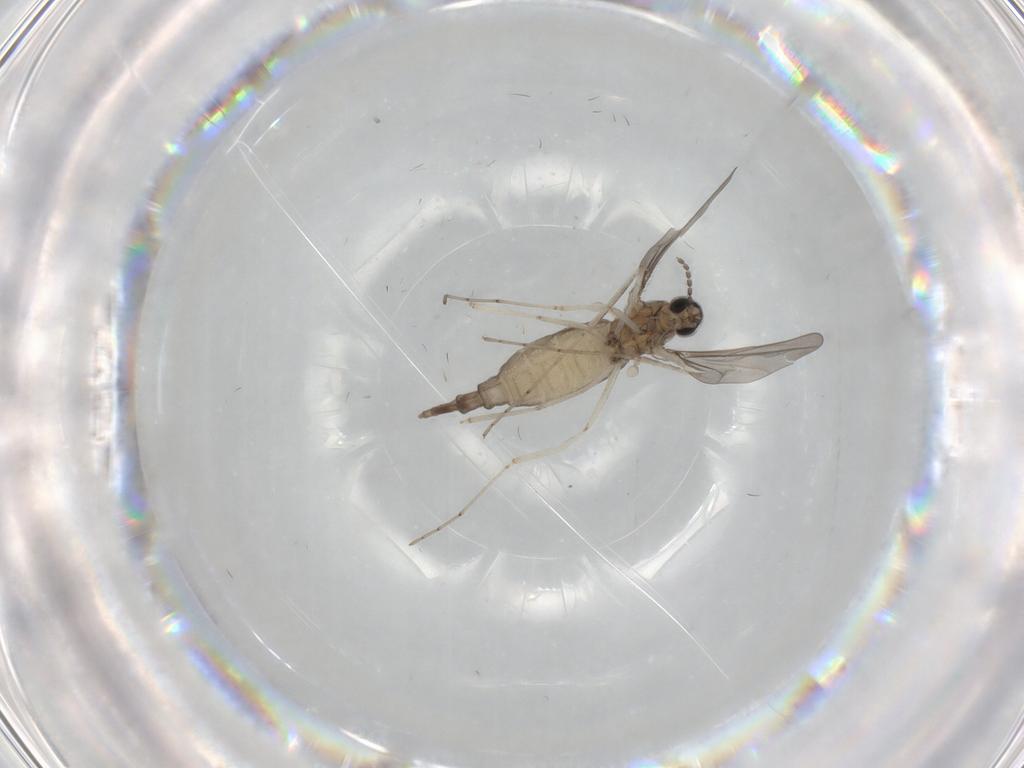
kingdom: Animalia
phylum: Arthropoda
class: Insecta
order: Diptera
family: Cecidomyiidae
